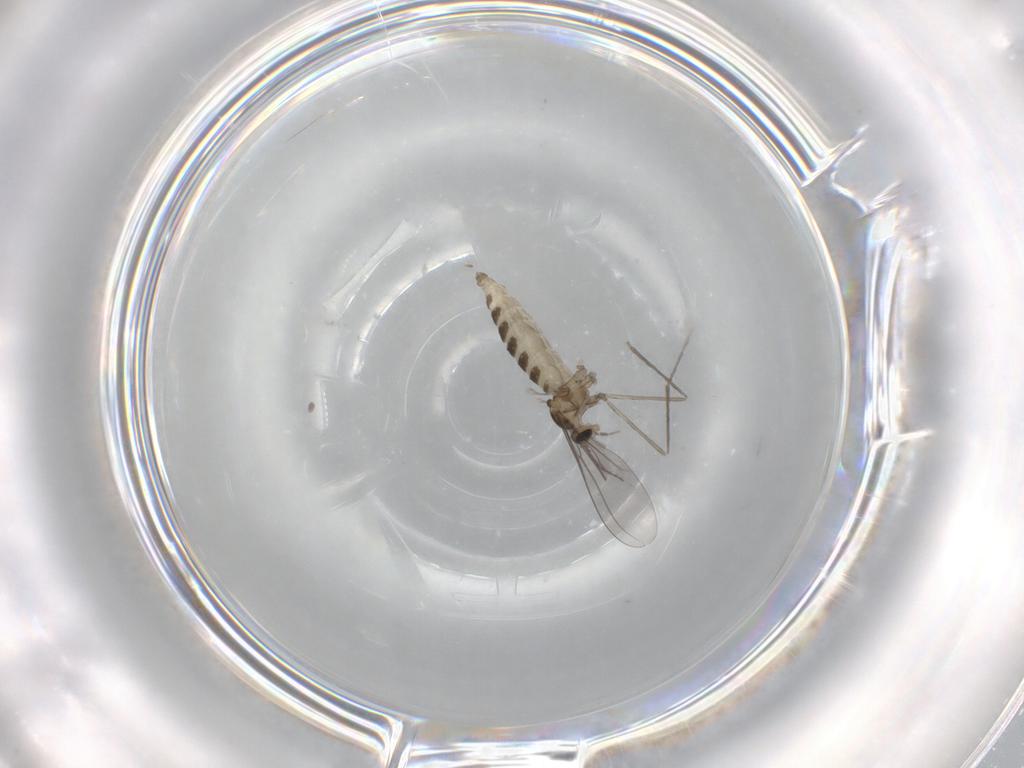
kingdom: Animalia
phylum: Arthropoda
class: Insecta
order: Diptera
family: Cecidomyiidae
